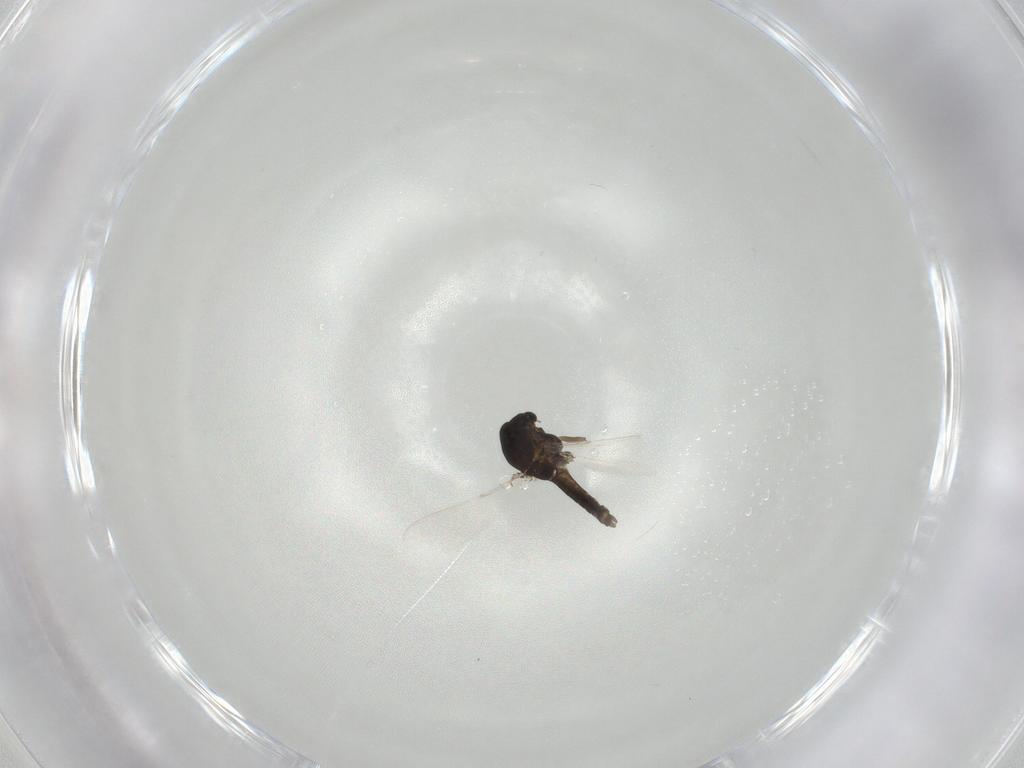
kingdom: Animalia
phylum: Arthropoda
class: Insecta
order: Diptera
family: Chironomidae
